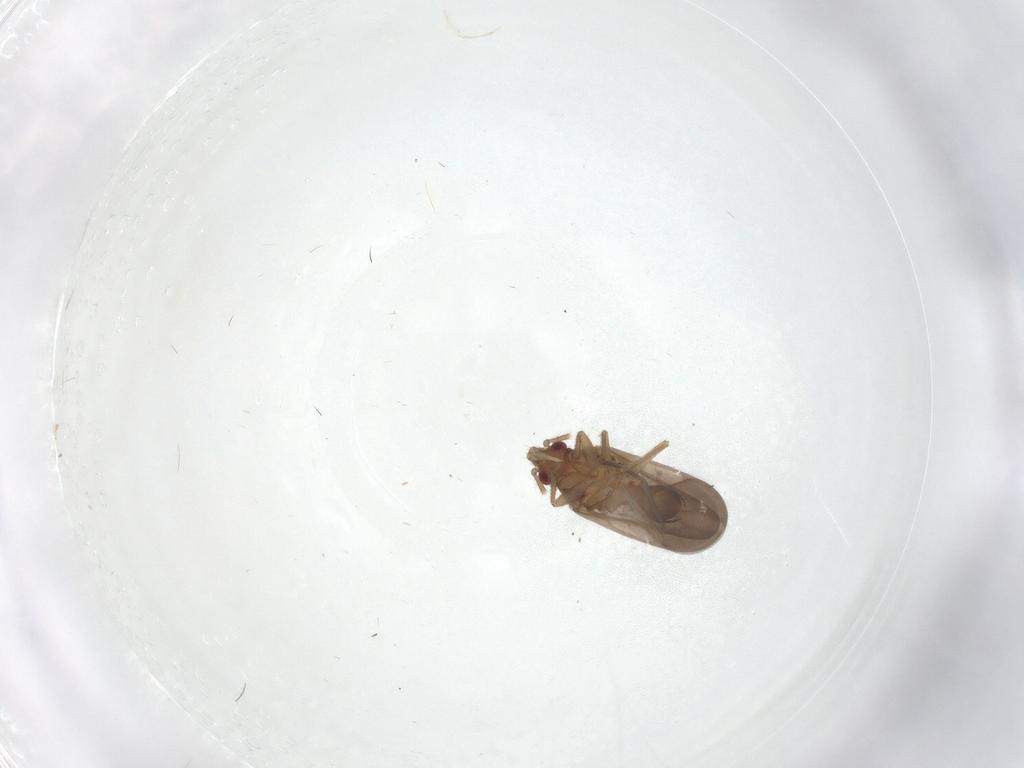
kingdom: Animalia
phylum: Arthropoda
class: Insecta
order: Hemiptera
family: Ceratocombidae
